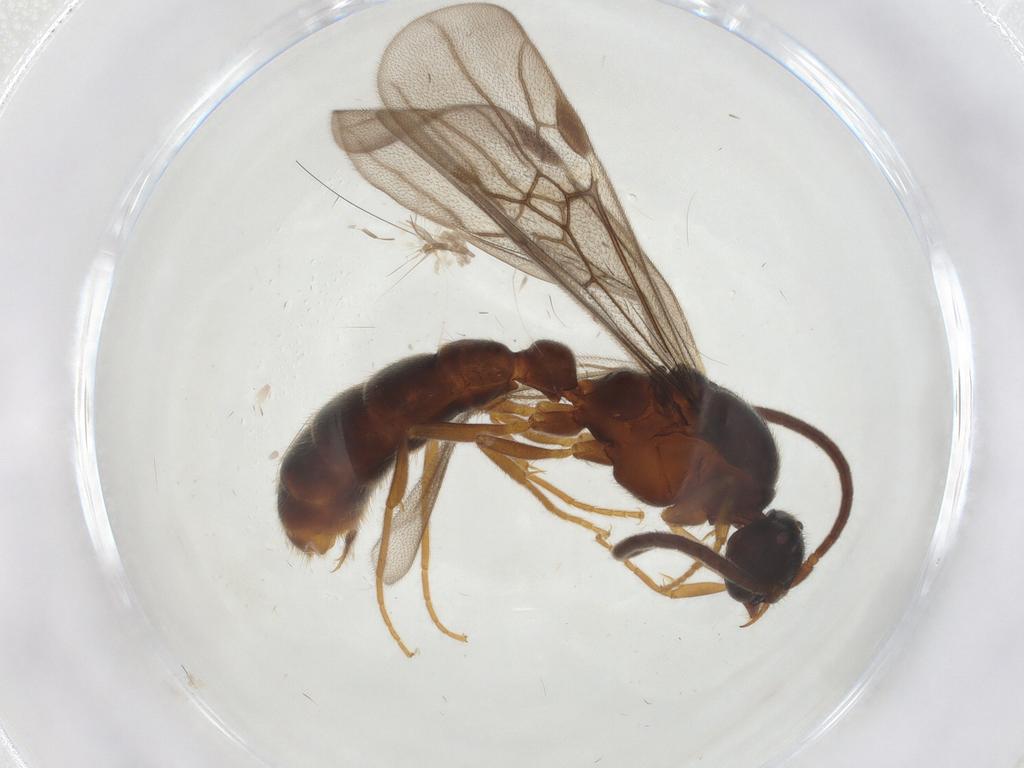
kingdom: Animalia
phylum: Arthropoda
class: Insecta
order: Hymenoptera
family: Formicidae
